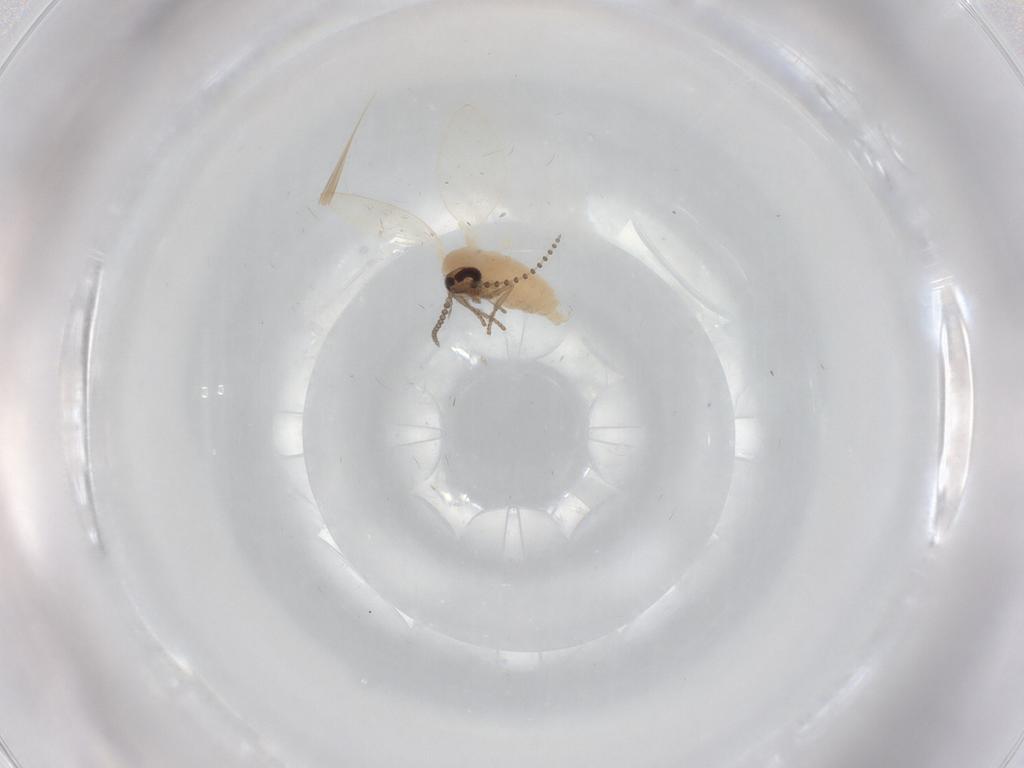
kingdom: Animalia
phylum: Arthropoda
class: Insecta
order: Diptera
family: Psychodidae
